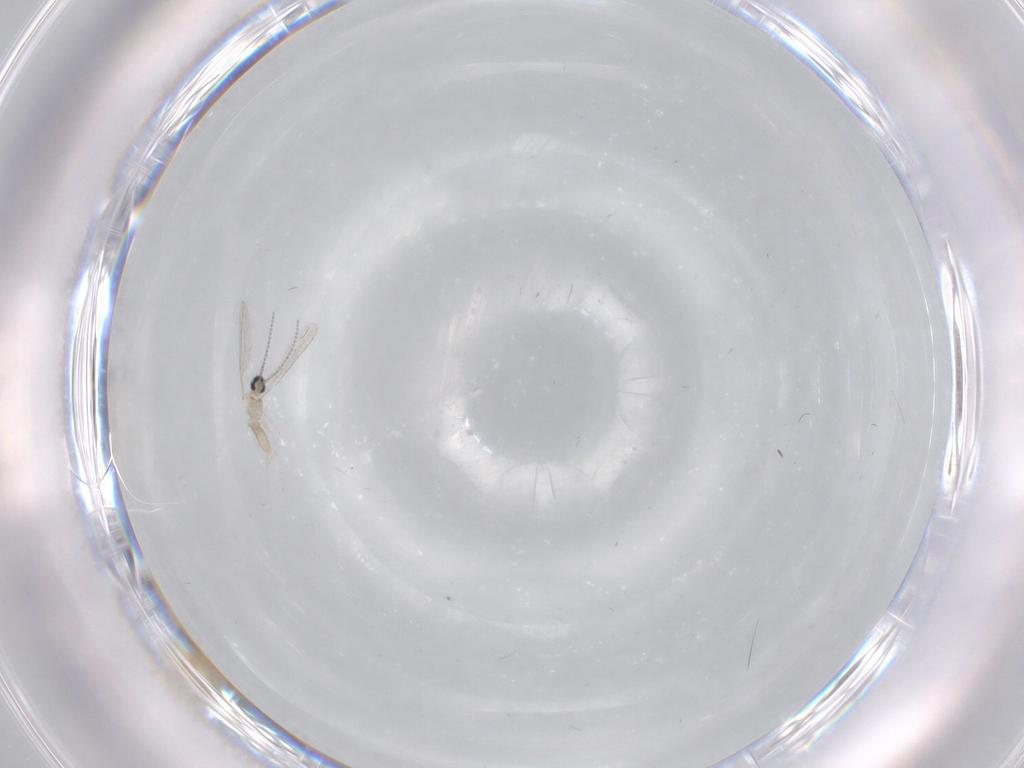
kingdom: Animalia
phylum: Arthropoda
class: Insecta
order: Diptera
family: Cecidomyiidae
